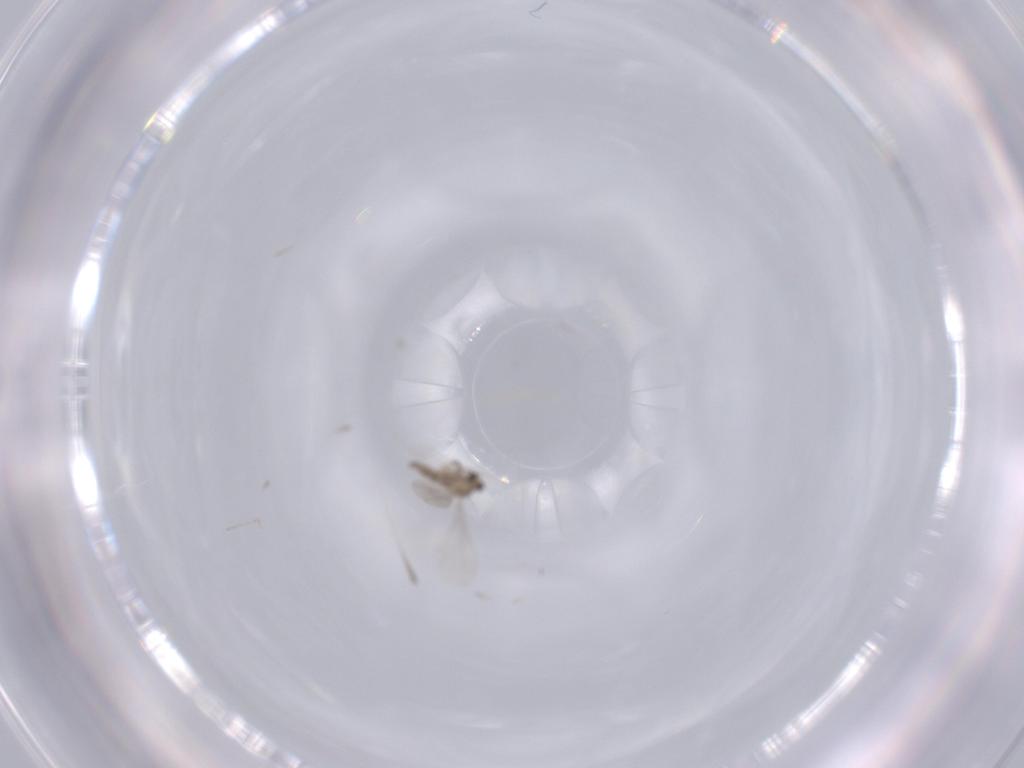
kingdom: Animalia
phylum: Arthropoda
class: Insecta
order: Diptera
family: Cecidomyiidae
